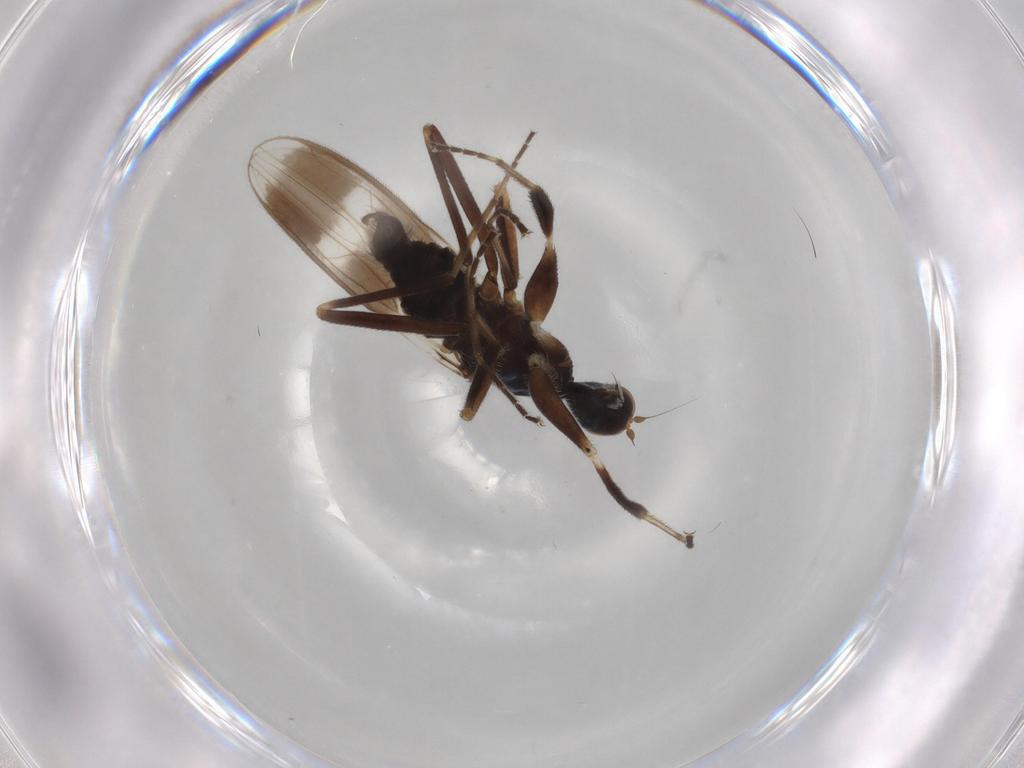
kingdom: Animalia
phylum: Arthropoda
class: Insecta
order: Diptera
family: Hybotidae
